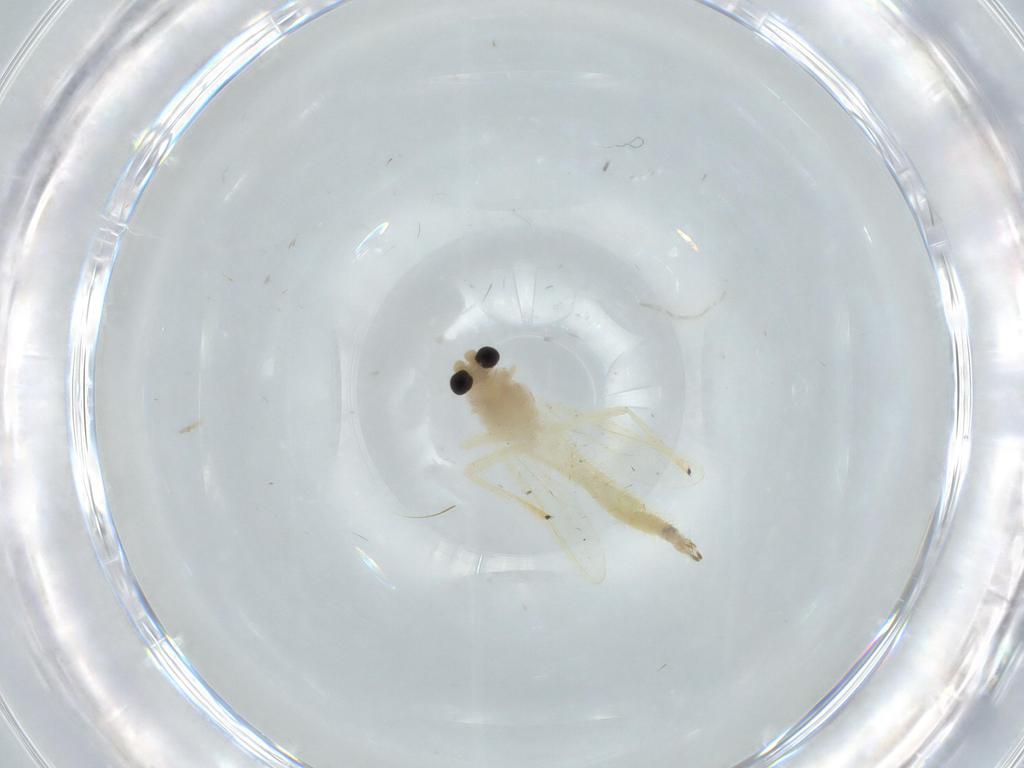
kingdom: Animalia
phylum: Arthropoda
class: Insecta
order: Diptera
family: Chironomidae
